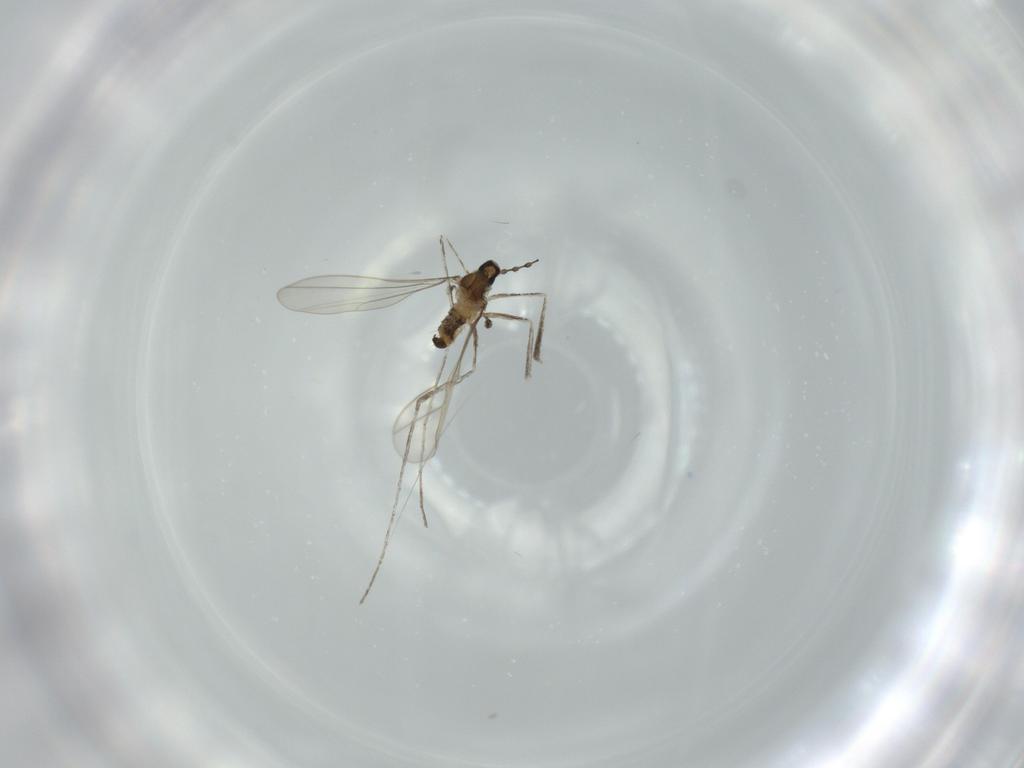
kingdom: Animalia
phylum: Arthropoda
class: Insecta
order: Diptera
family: Cecidomyiidae
